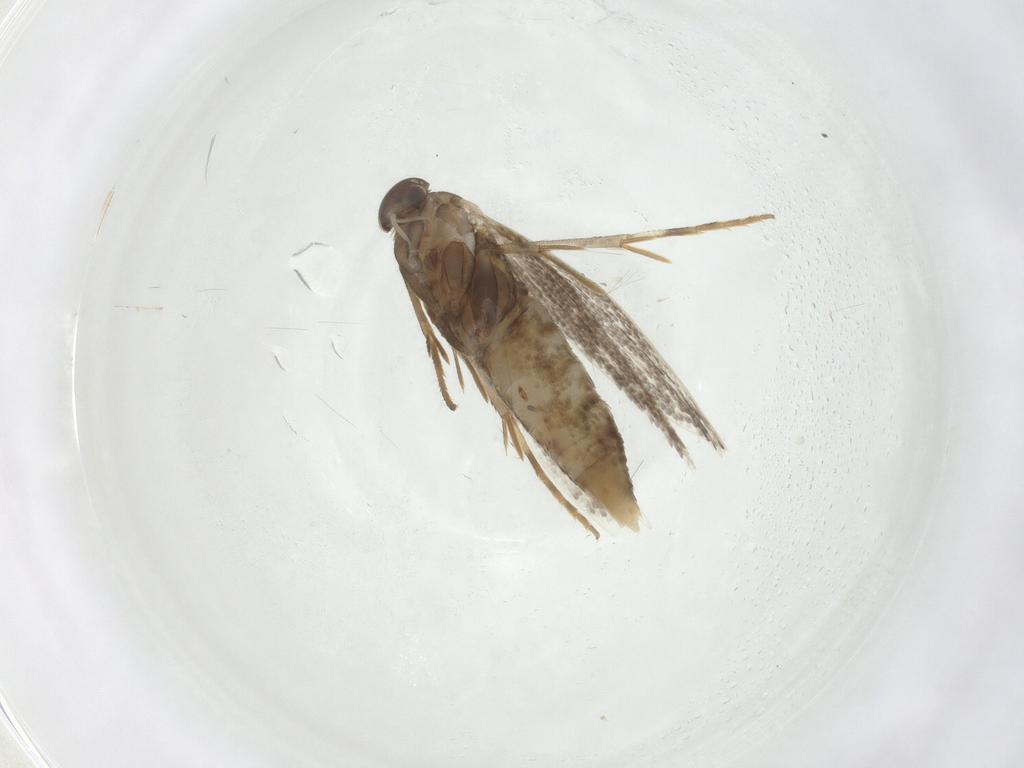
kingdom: Animalia
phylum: Arthropoda
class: Insecta
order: Lepidoptera
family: Elachistidae
